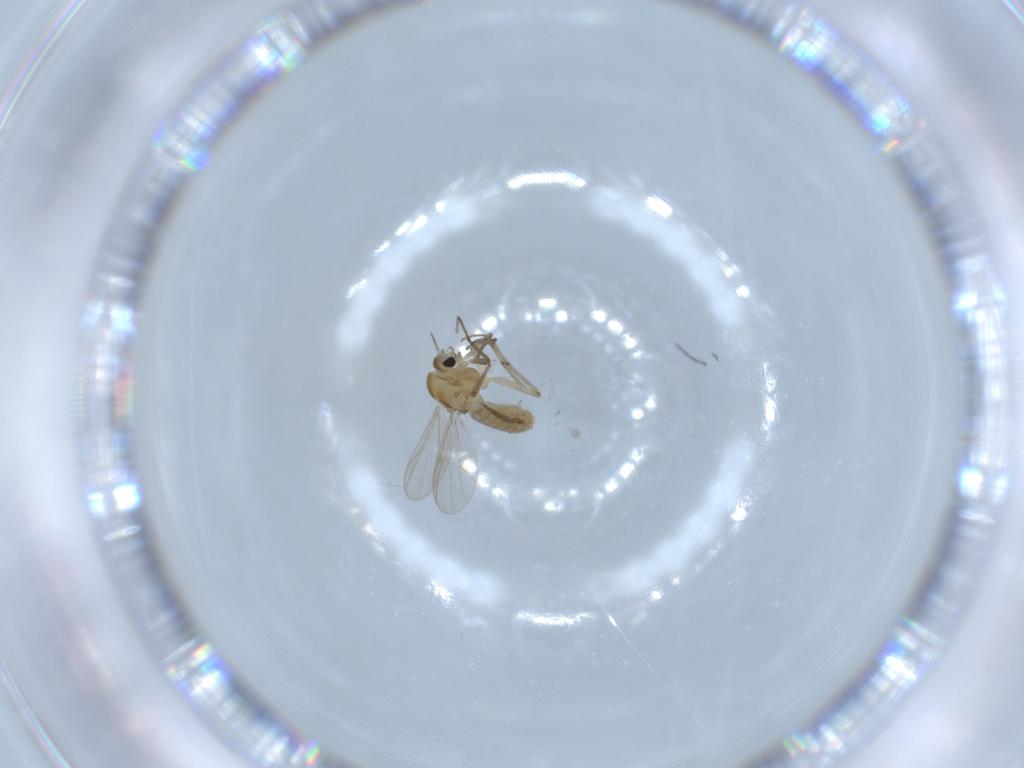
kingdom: Animalia
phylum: Arthropoda
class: Insecta
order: Diptera
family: Chironomidae
